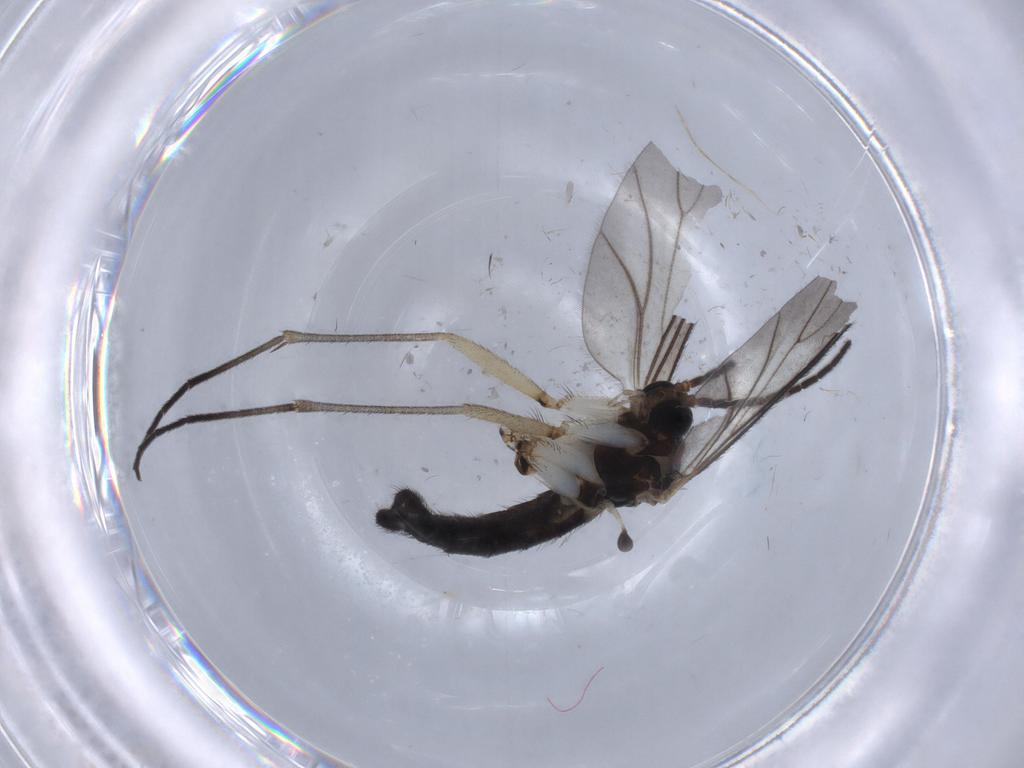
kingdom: Animalia
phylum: Arthropoda
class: Insecta
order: Diptera
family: Sciaridae
